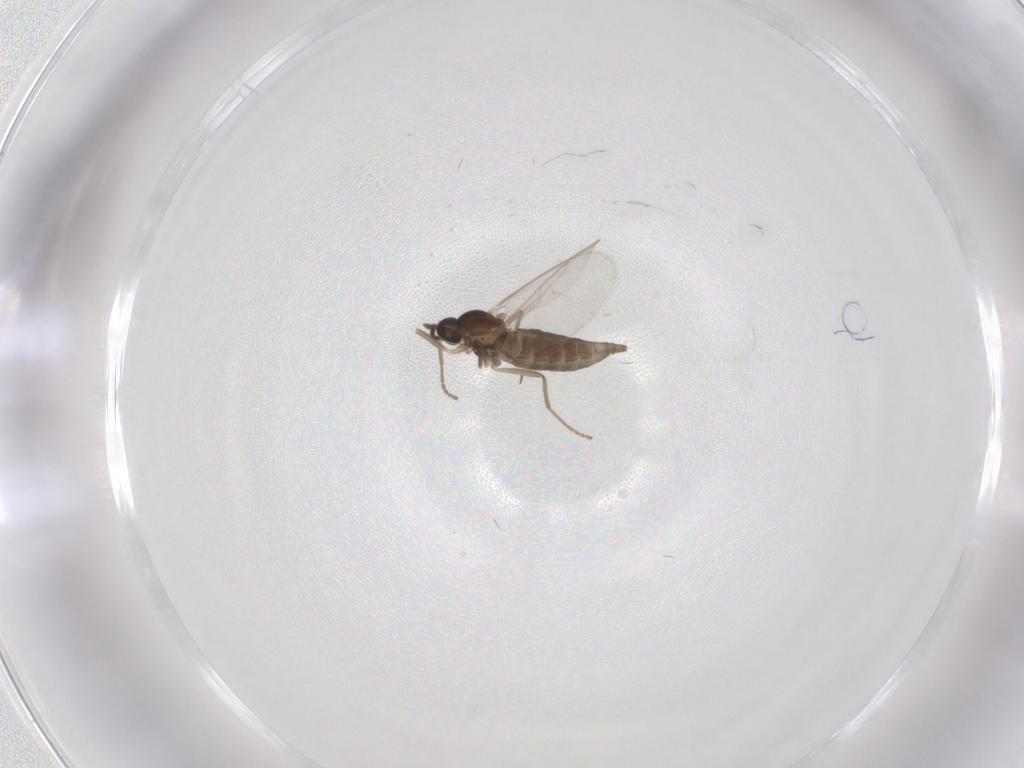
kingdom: Animalia
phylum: Arthropoda
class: Insecta
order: Diptera
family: Cecidomyiidae
